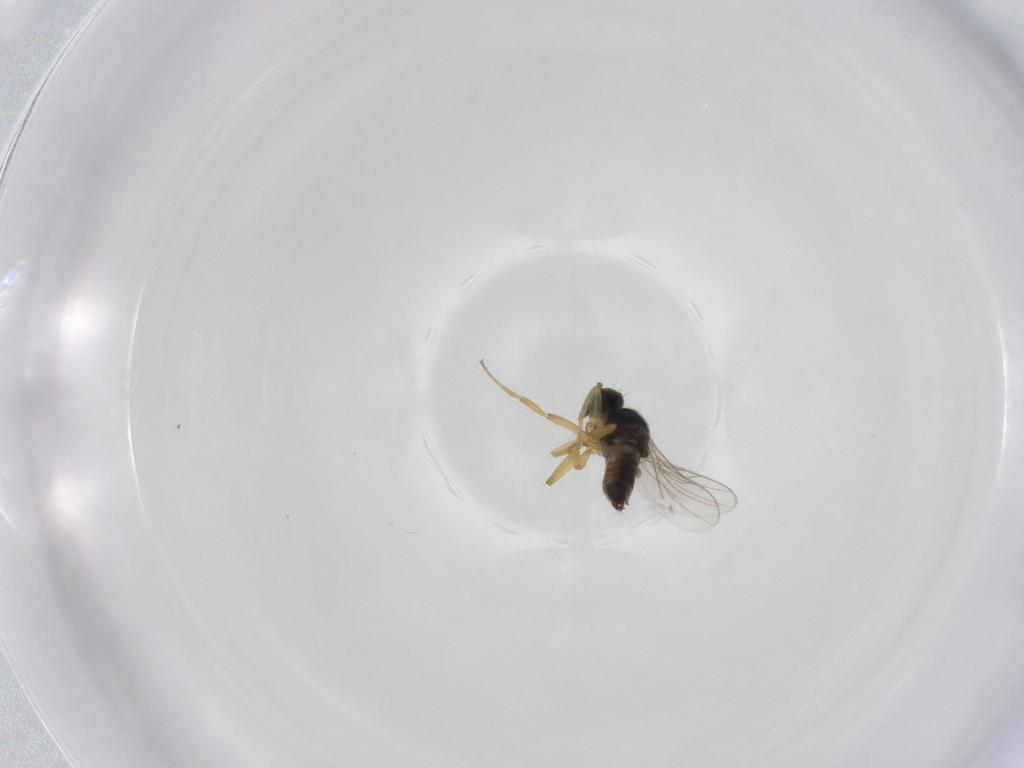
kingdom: Animalia
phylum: Arthropoda
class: Insecta
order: Diptera
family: Hybotidae
